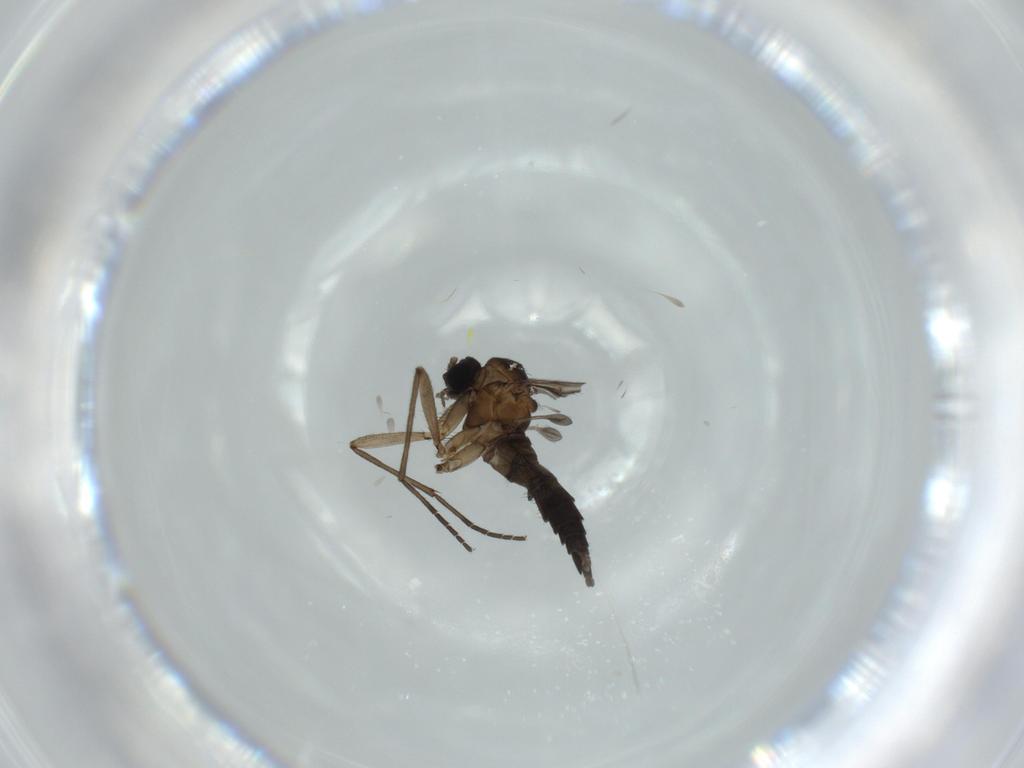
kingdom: Animalia
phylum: Arthropoda
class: Insecta
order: Diptera
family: Sciaridae
